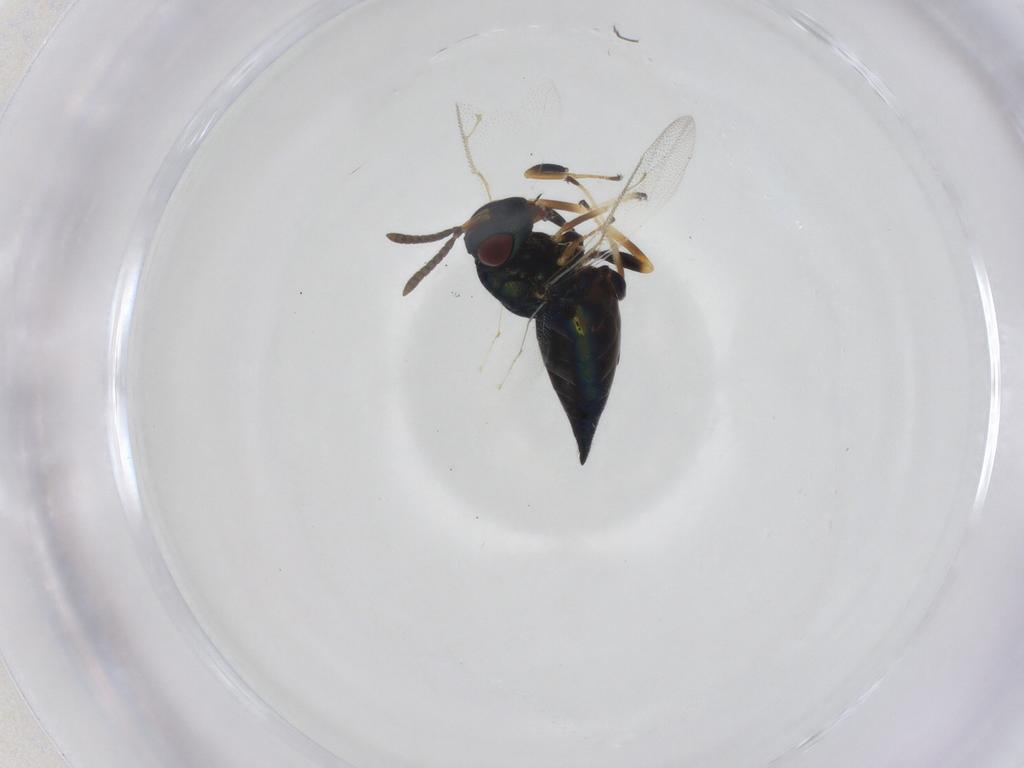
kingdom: Animalia
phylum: Arthropoda
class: Insecta
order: Hymenoptera
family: Pteromalidae
